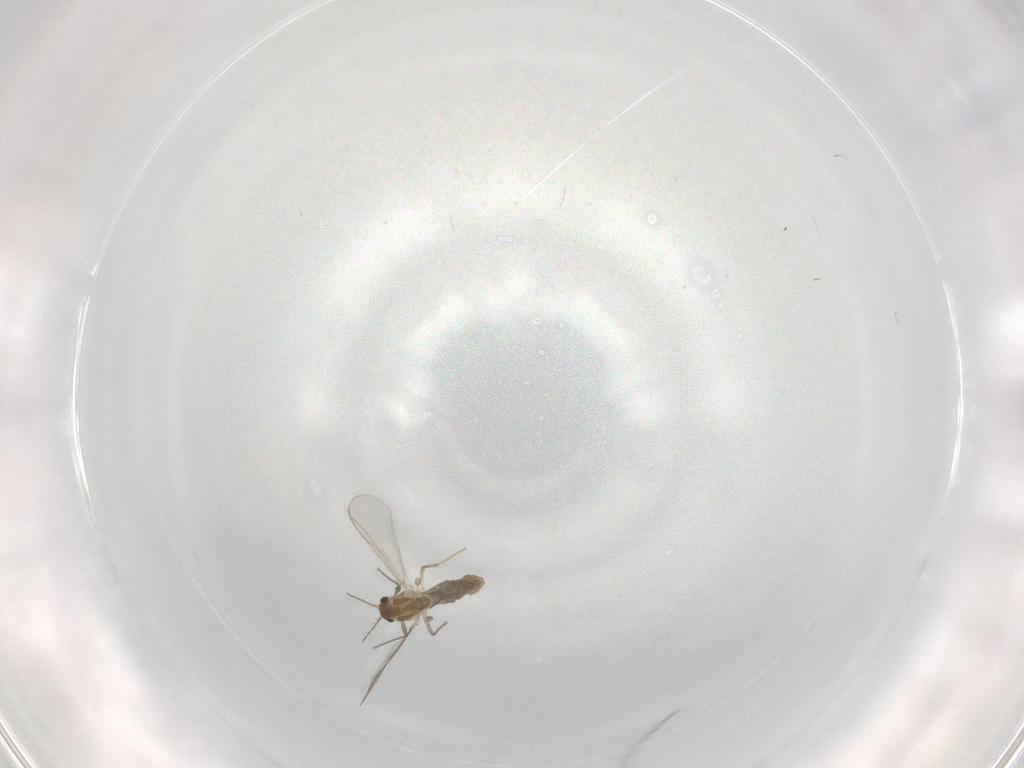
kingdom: Animalia
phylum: Arthropoda
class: Insecta
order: Diptera
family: Chironomidae
